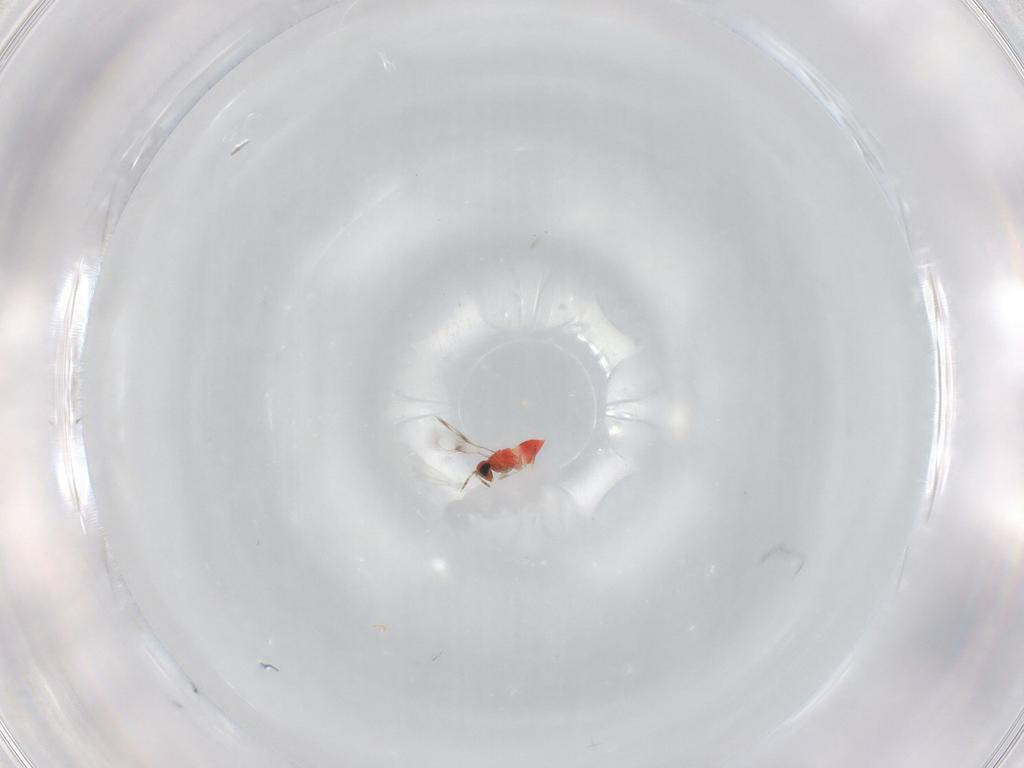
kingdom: Animalia
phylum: Arthropoda
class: Insecta
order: Hymenoptera
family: Trichogrammatidae
